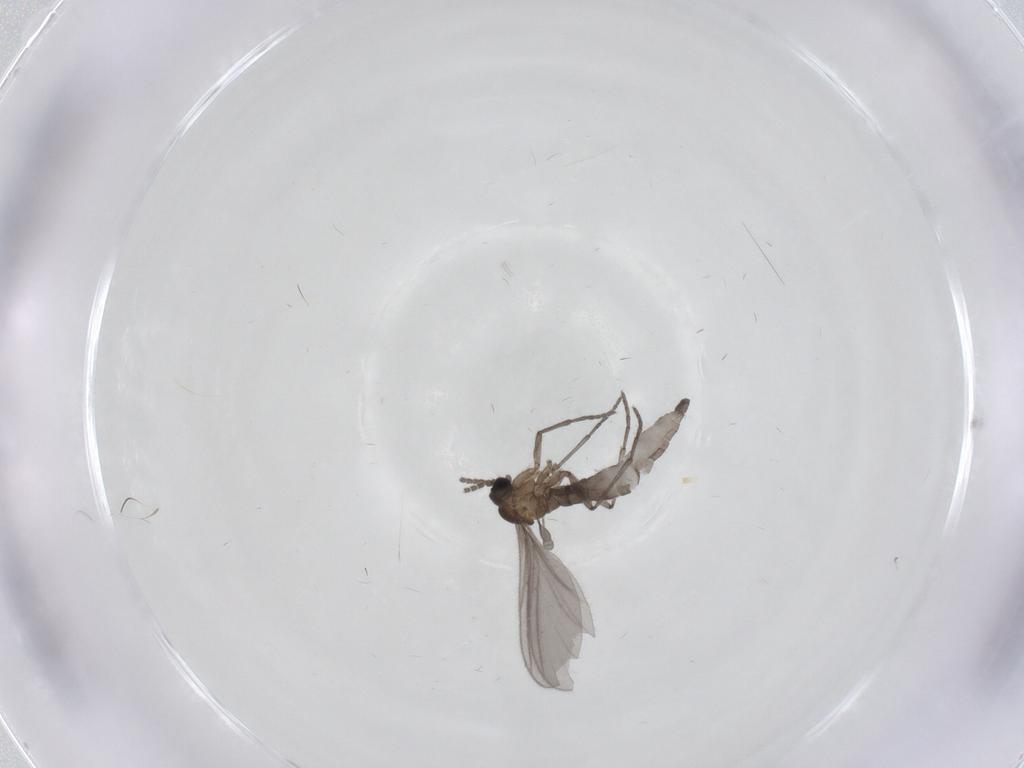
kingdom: Animalia
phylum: Arthropoda
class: Insecta
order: Diptera
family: Sciaridae
